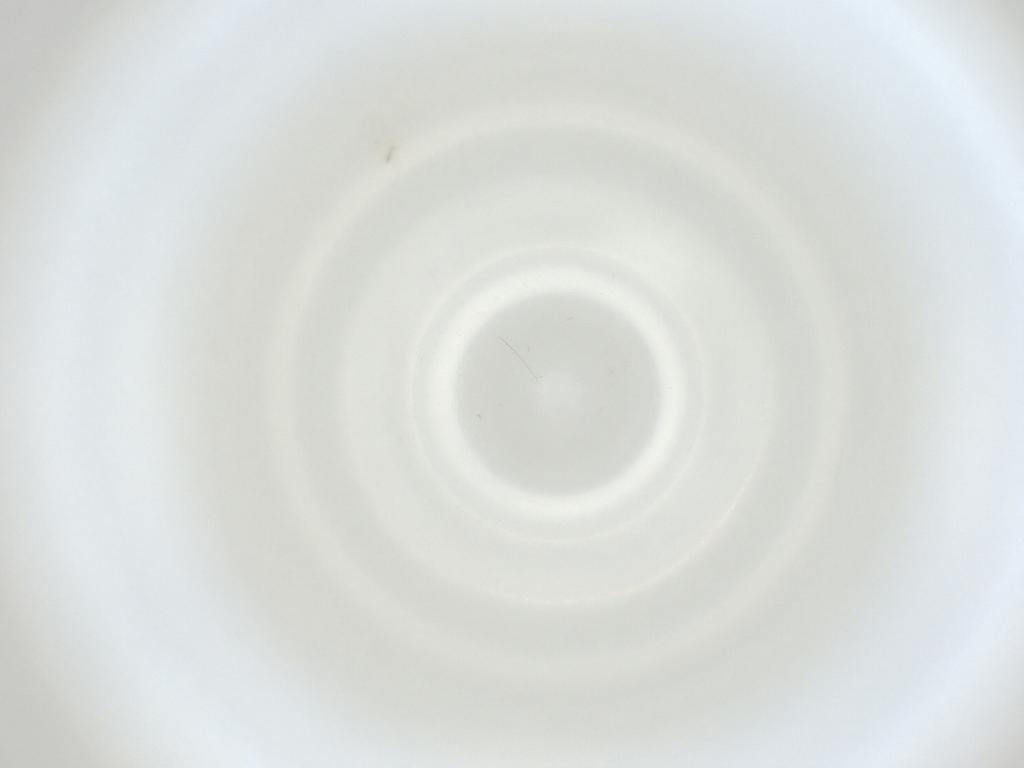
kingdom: Animalia
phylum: Arthropoda
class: Insecta
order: Diptera
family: Cecidomyiidae
